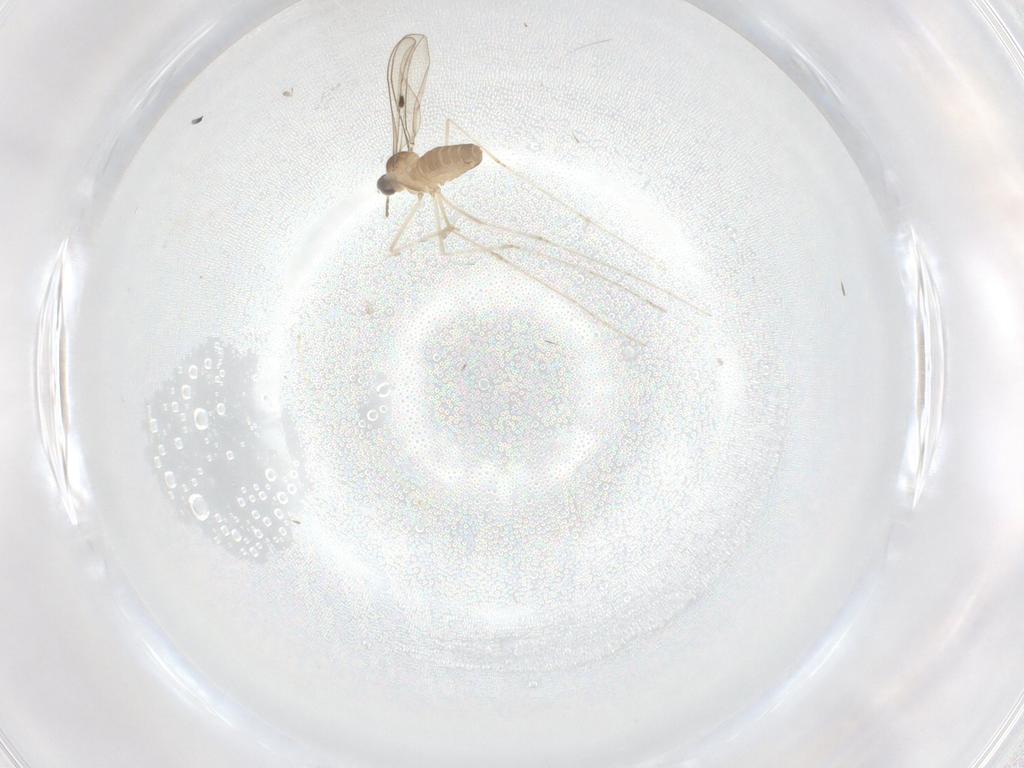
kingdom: Animalia
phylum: Arthropoda
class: Insecta
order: Diptera
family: Cecidomyiidae
